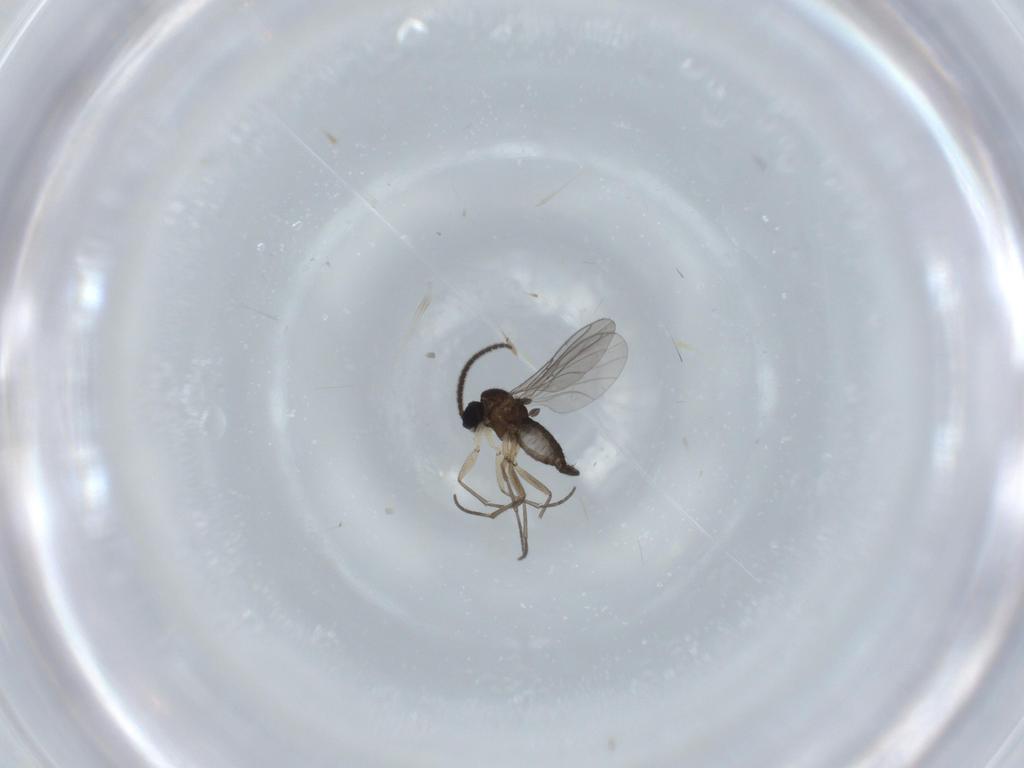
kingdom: Animalia
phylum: Arthropoda
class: Insecta
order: Diptera
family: Sciaridae
